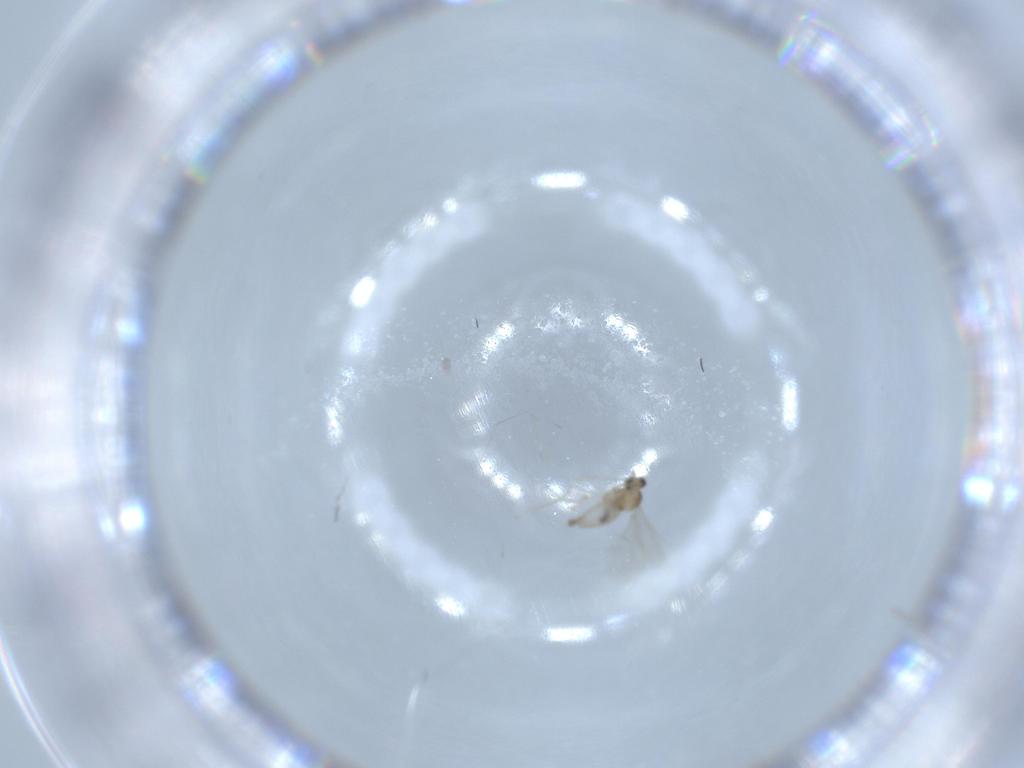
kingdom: Animalia
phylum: Arthropoda
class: Insecta
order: Diptera
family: Cecidomyiidae
